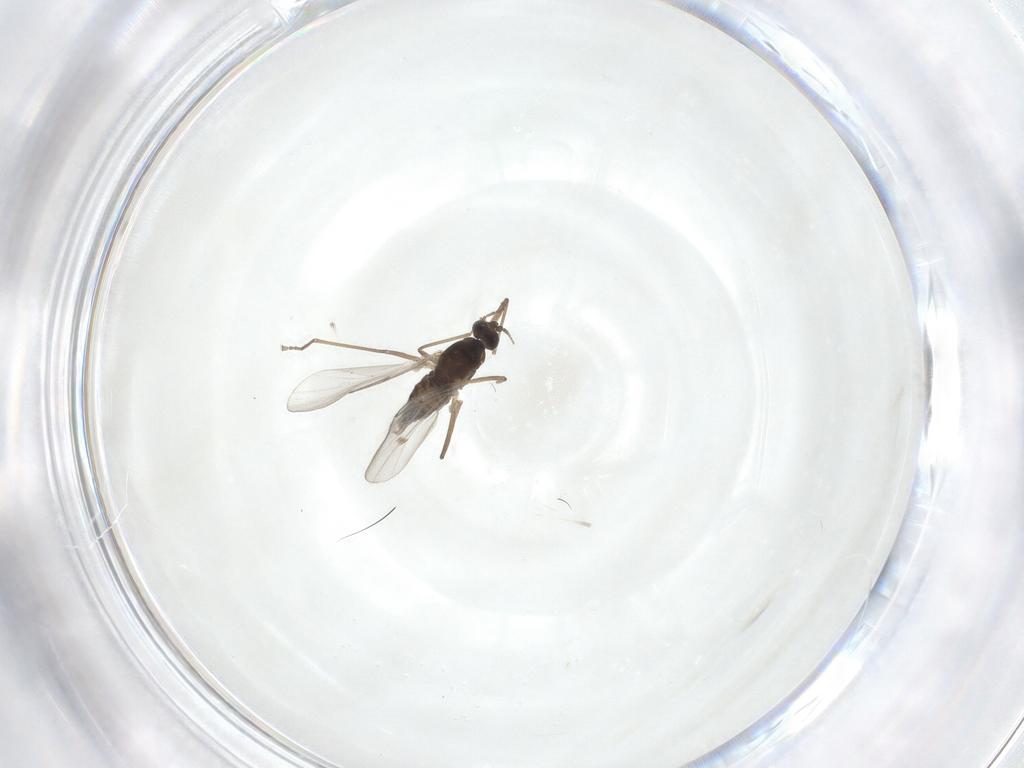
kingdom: Animalia
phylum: Arthropoda
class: Insecta
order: Diptera
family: Cecidomyiidae
